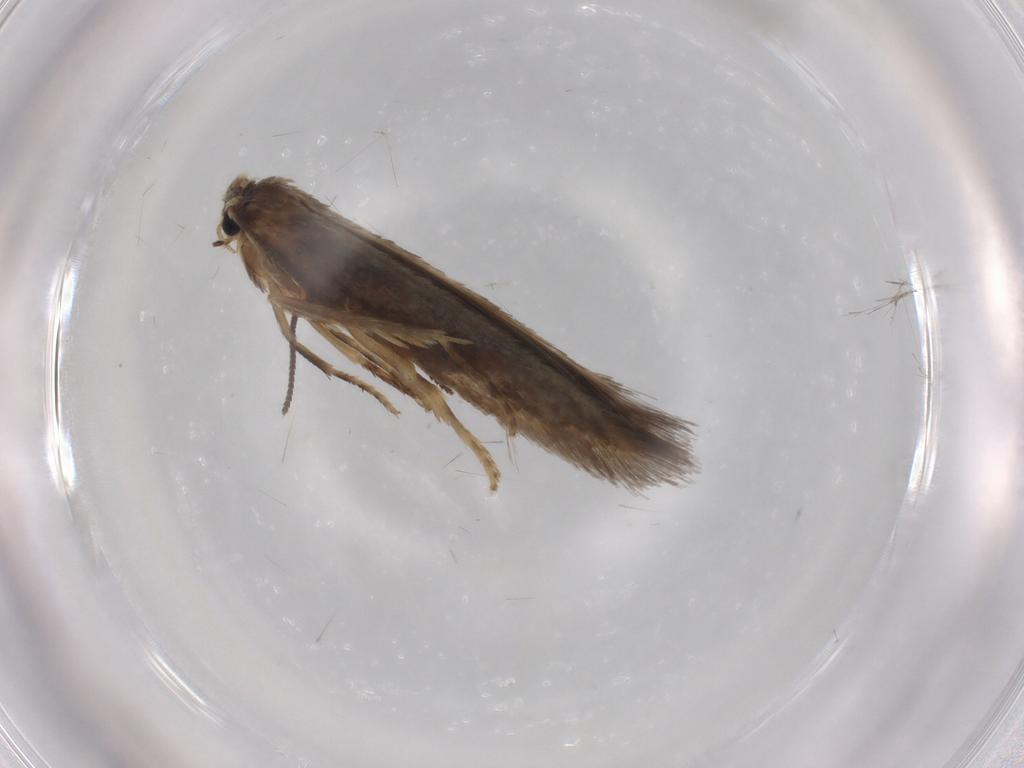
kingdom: Animalia
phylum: Arthropoda
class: Insecta
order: Lepidoptera
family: Nepticulidae
